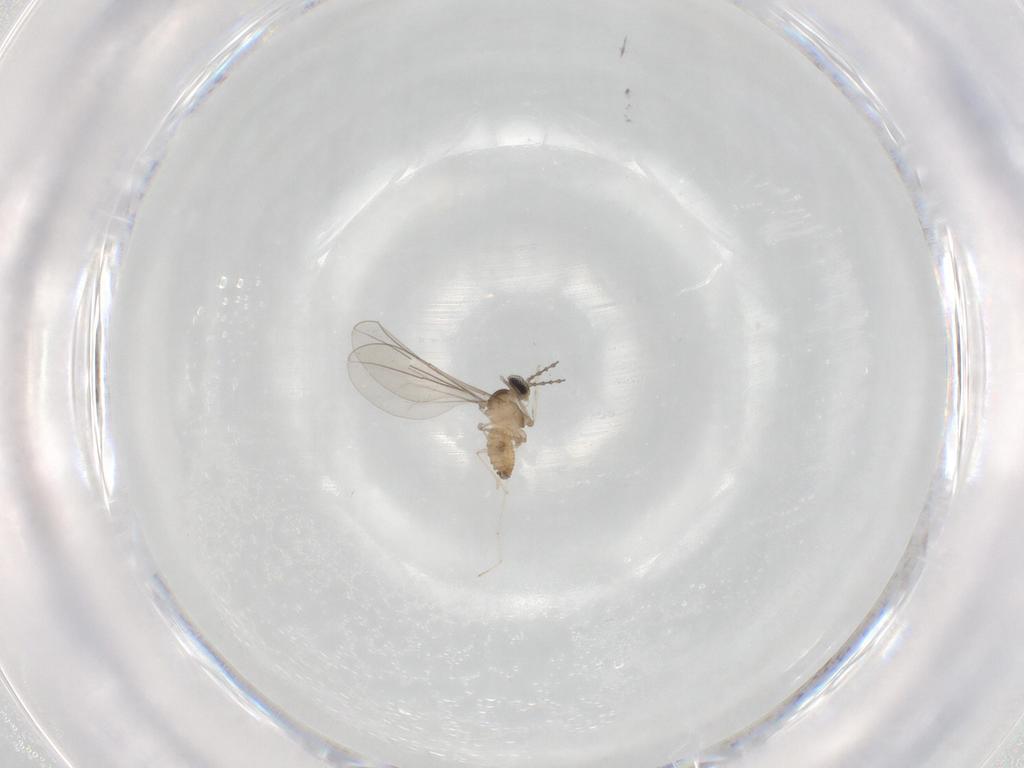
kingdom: Animalia
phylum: Arthropoda
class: Insecta
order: Diptera
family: Cecidomyiidae
